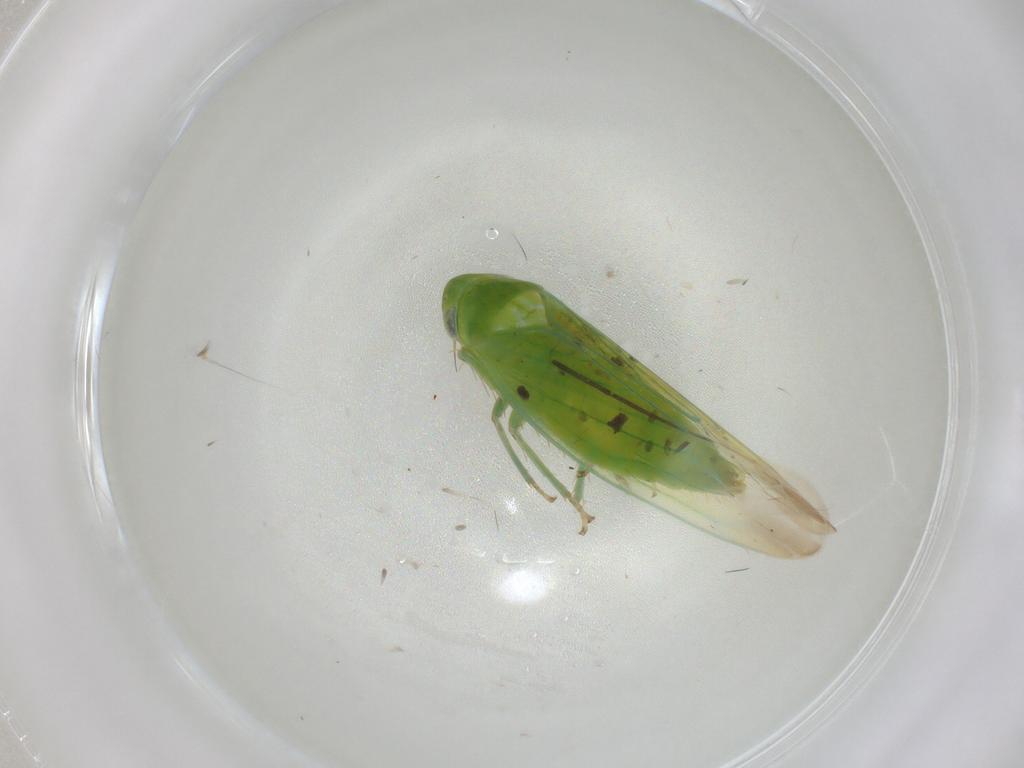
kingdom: Animalia
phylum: Arthropoda
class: Insecta
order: Hemiptera
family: Cicadellidae
